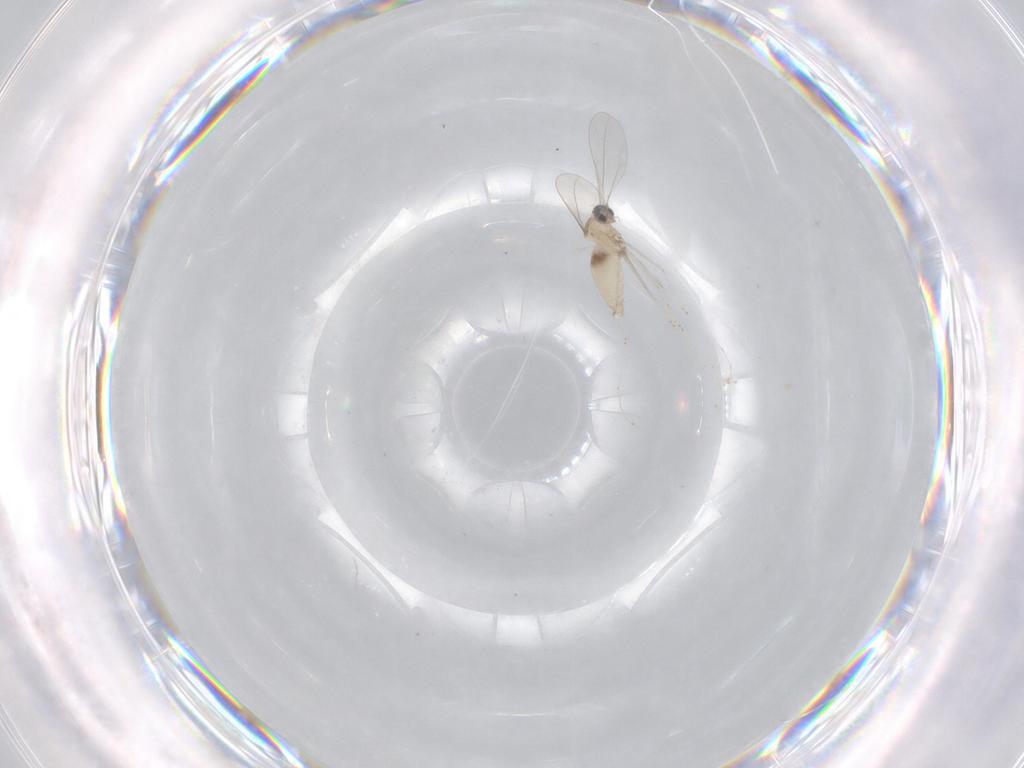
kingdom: Animalia
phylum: Arthropoda
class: Insecta
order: Diptera
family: Cecidomyiidae
